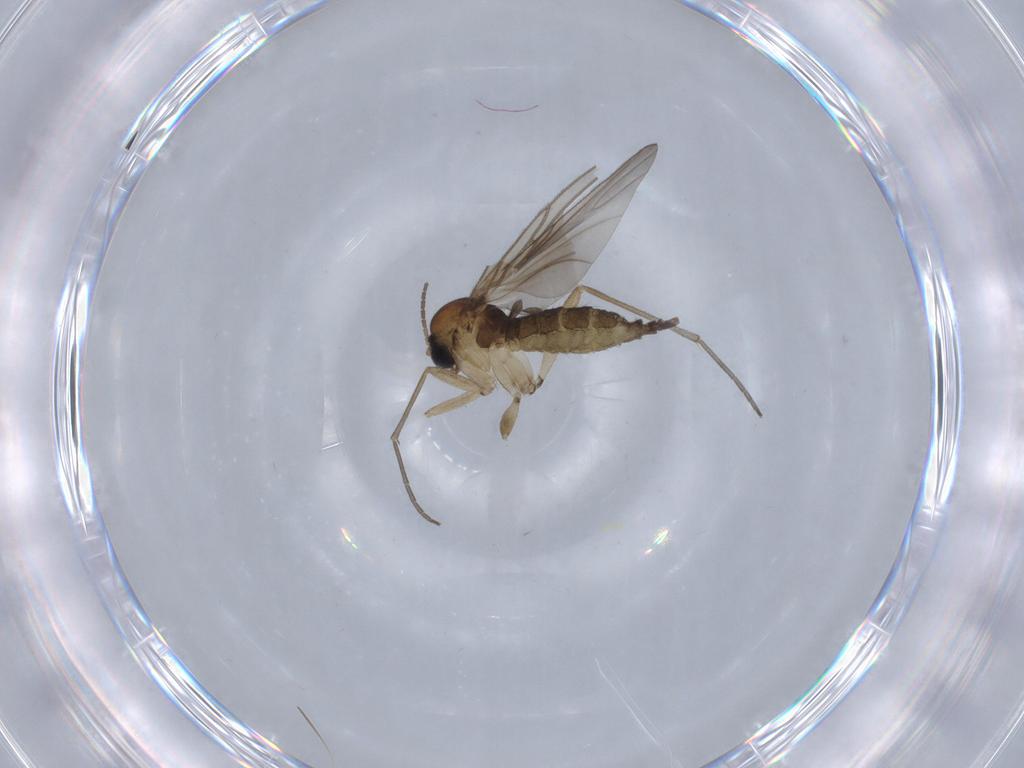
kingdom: Animalia
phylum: Arthropoda
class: Insecta
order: Diptera
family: Sciaridae
